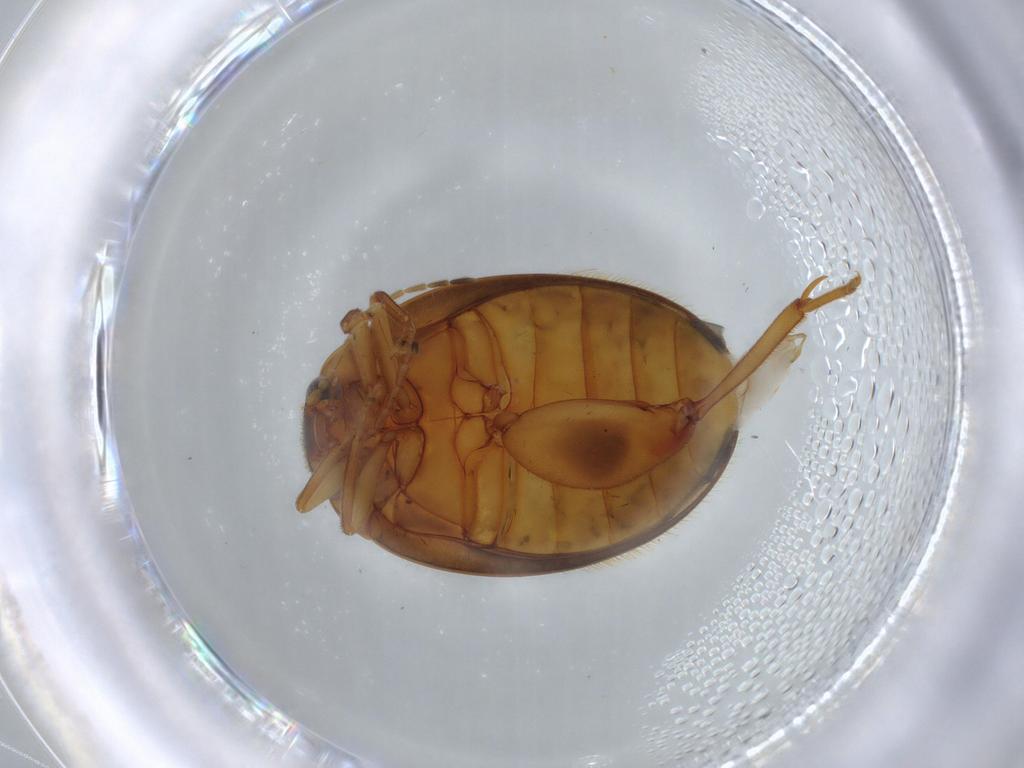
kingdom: Animalia
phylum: Arthropoda
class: Insecta
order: Coleoptera
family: Scirtidae
